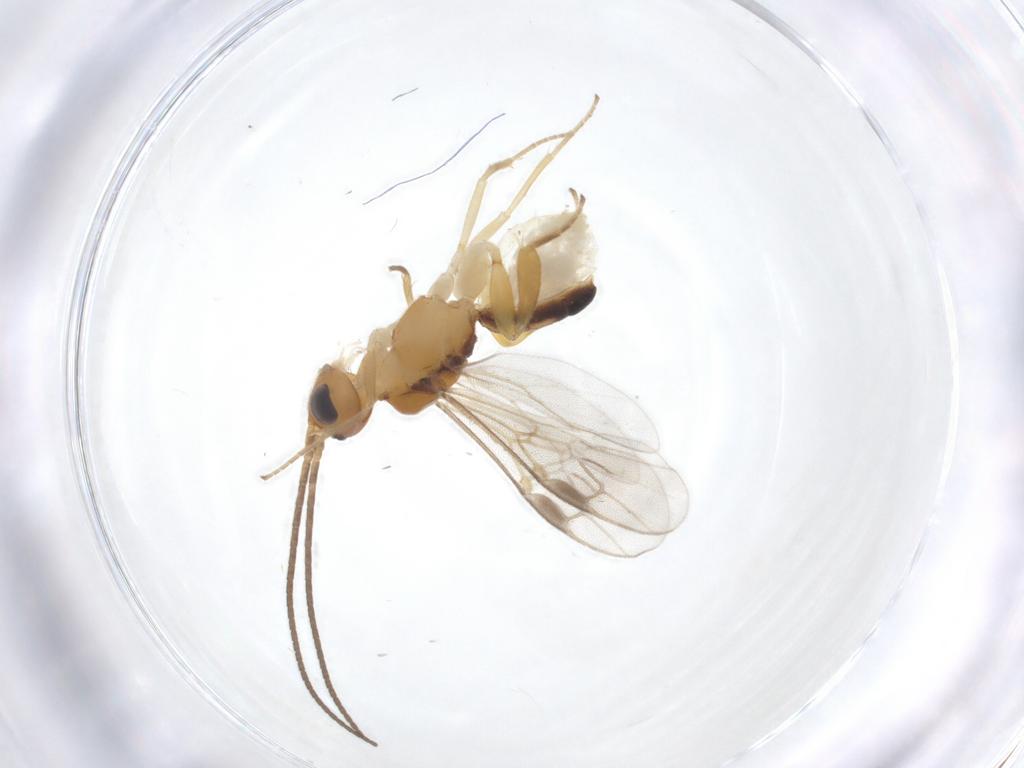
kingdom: Animalia
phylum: Arthropoda
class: Insecta
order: Hymenoptera
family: Braconidae
